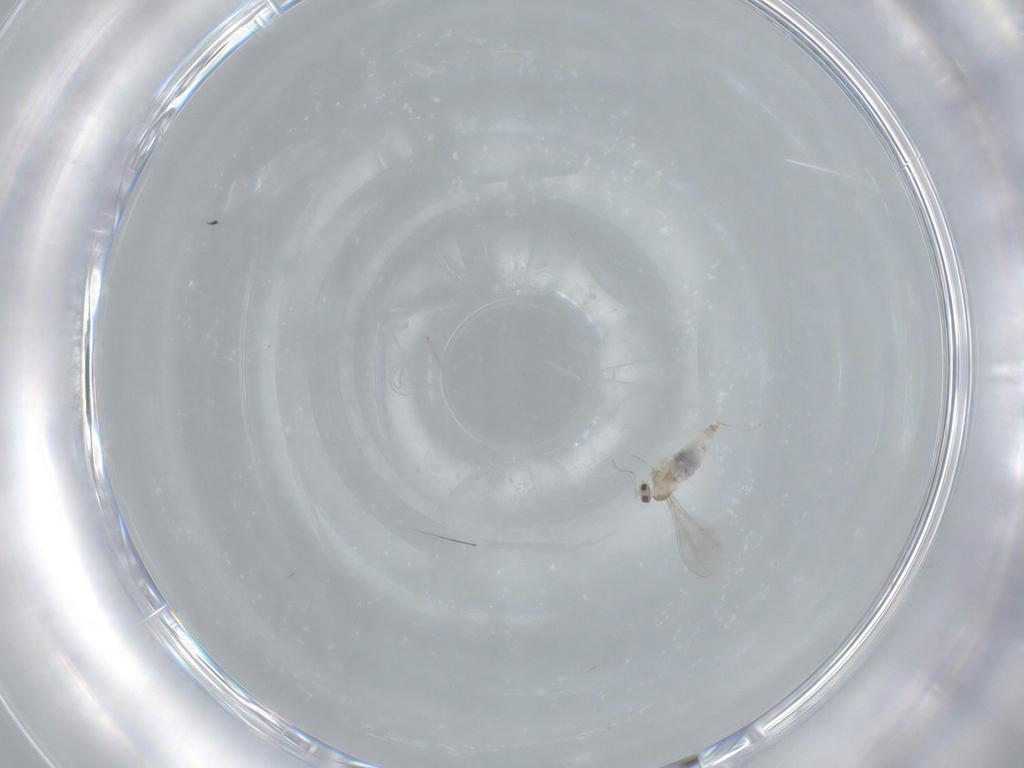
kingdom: Animalia
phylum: Arthropoda
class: Insecta
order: Diptera
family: Cecidomyiidae
